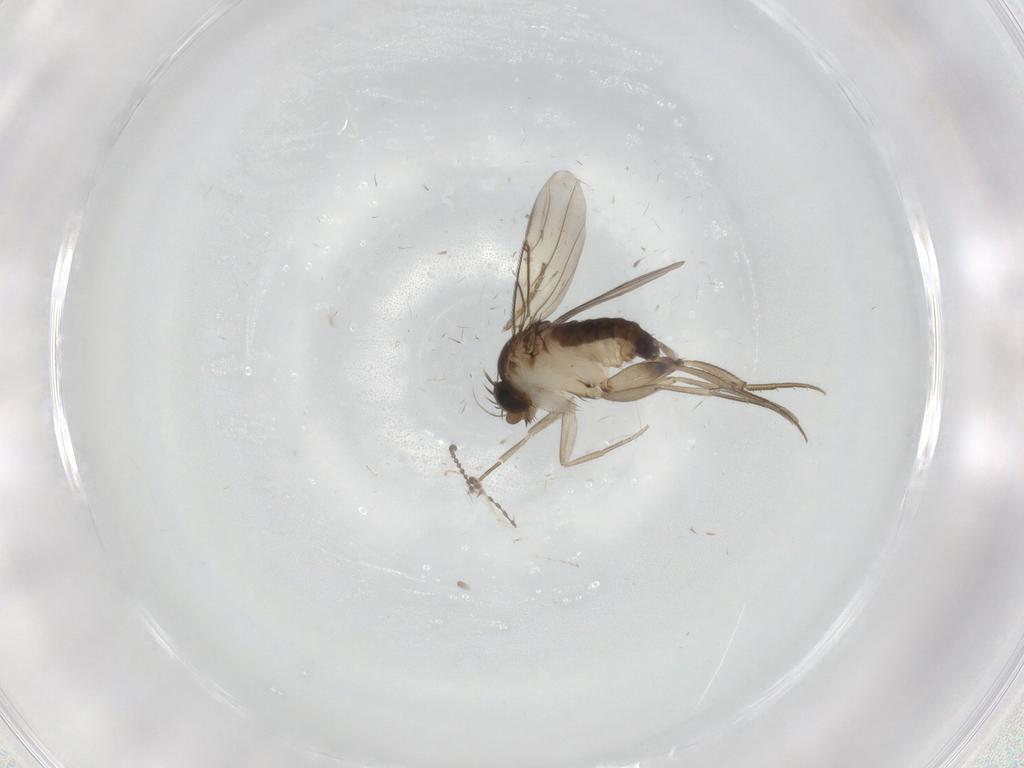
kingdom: Animalia
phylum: Arthropoda
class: Insecta
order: Diptera
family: Phoridae
